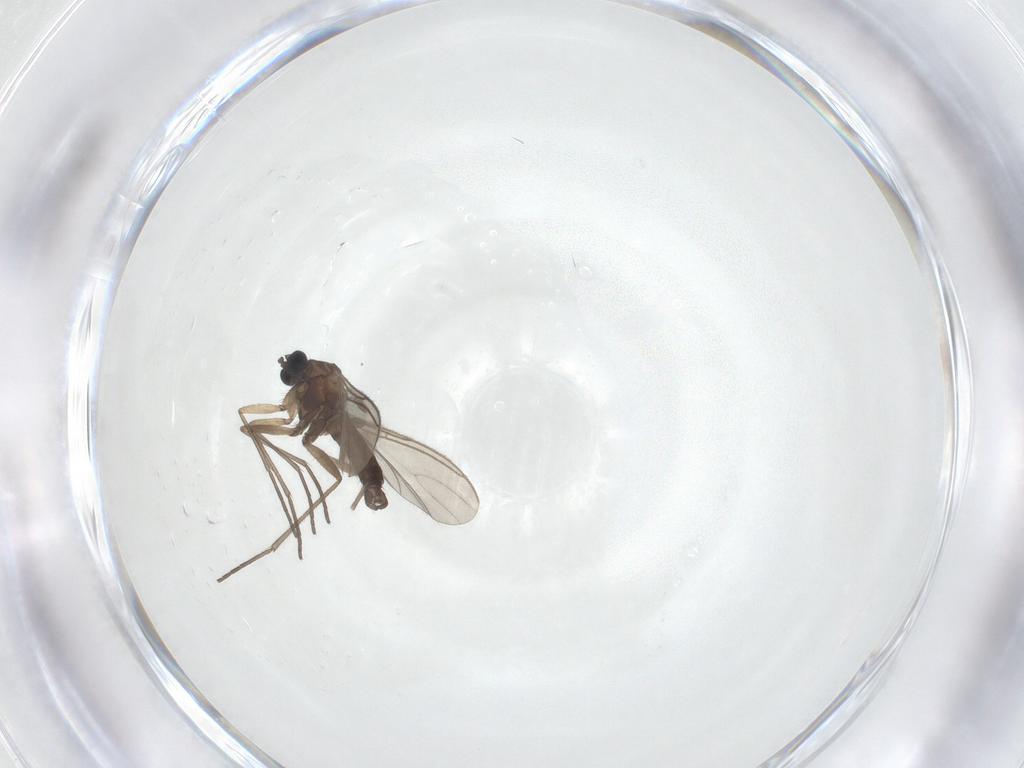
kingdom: Animalia
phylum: Arthropoda
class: Insecta
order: Diptera
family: Sciaridae
